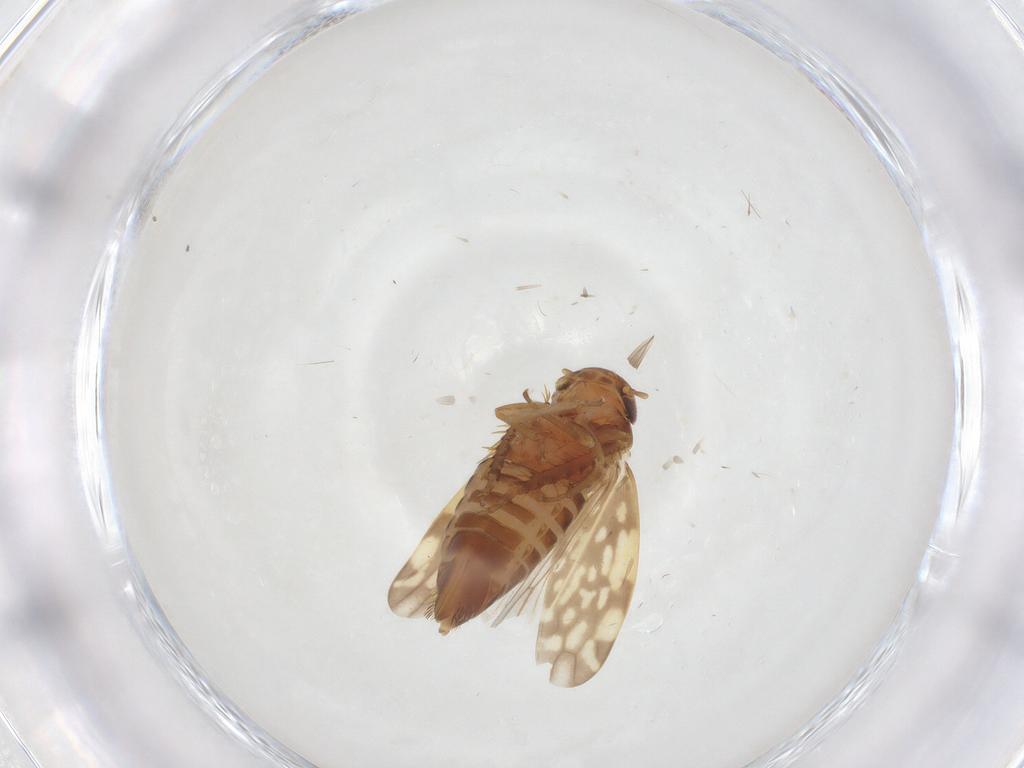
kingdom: Animalia
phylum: Arthropoda
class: Insecta
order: Hemiptera
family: Cicadellidae
